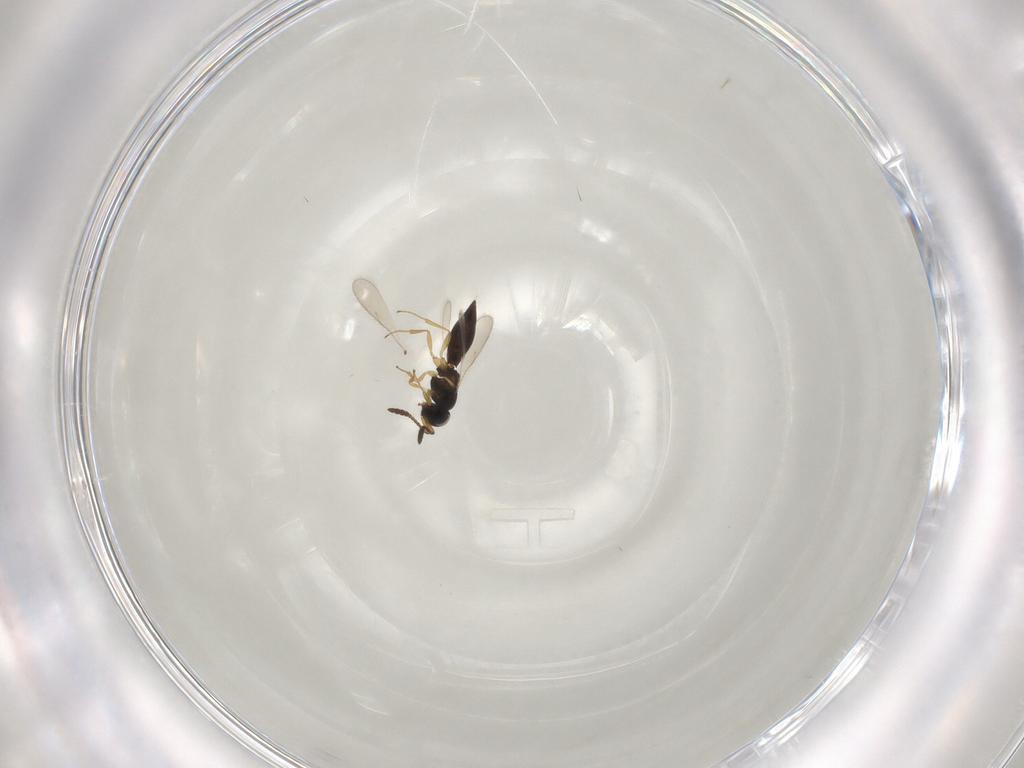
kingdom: Animalia
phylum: Arthropoda
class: Insecta
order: Hymenoptera
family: Scelionidae
